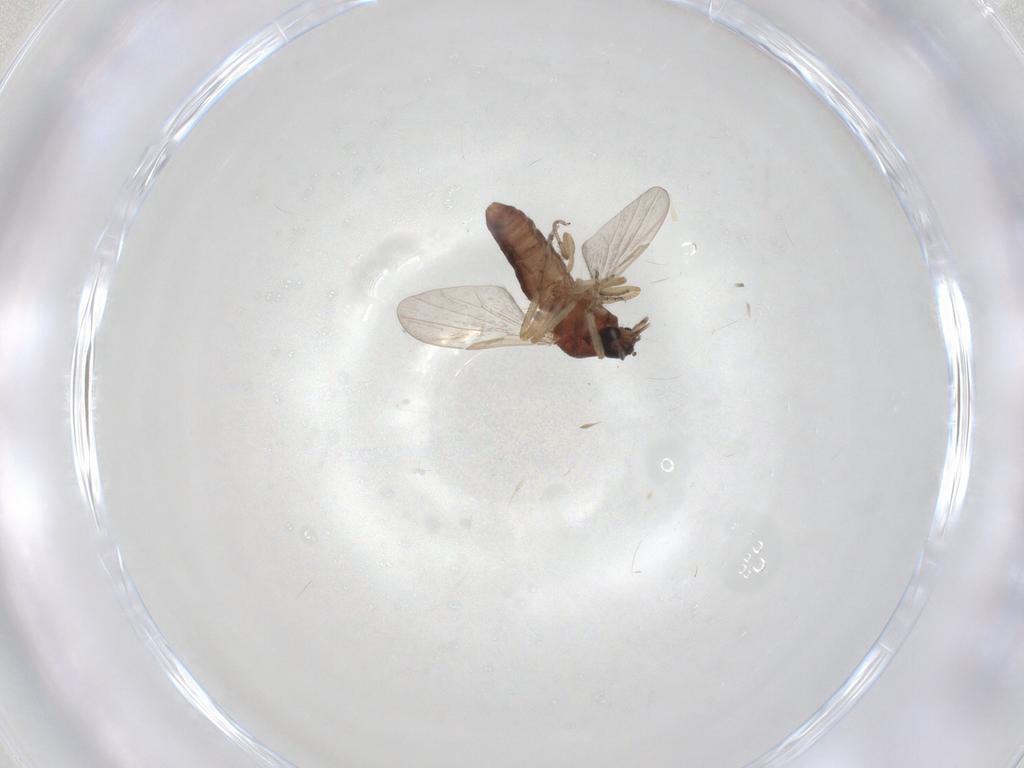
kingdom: Animalia
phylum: Arthropoda
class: Insecta
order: Diptera
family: Ceratopogonidae
